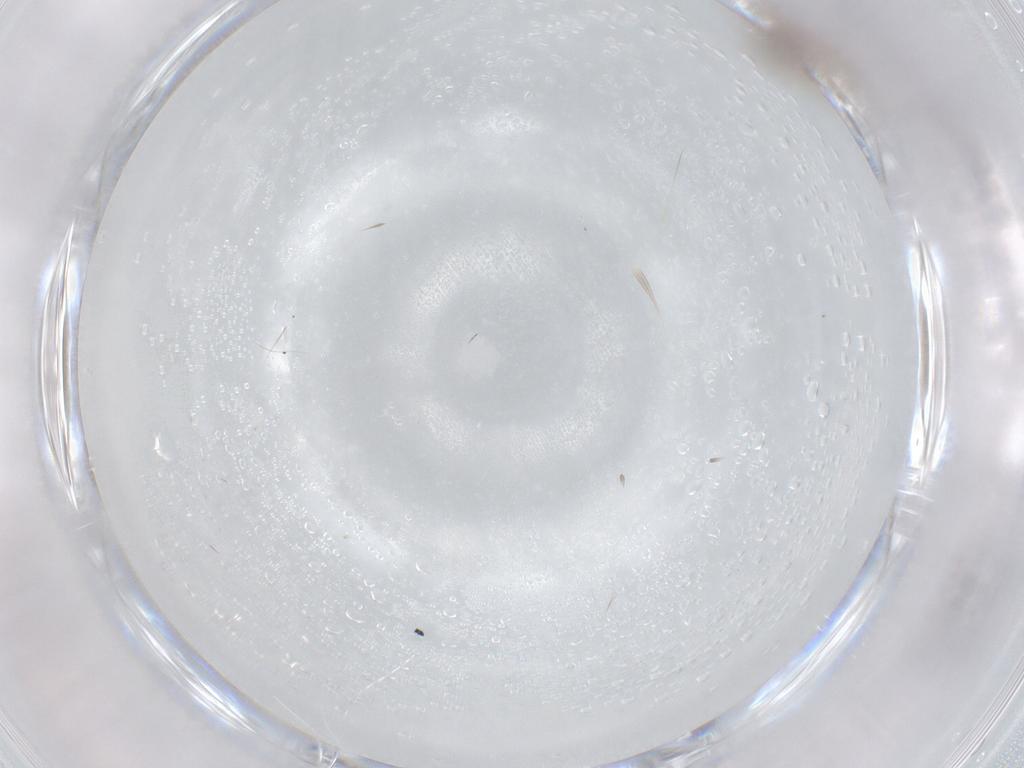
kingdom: Animalia
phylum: Arthropoda
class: Insecta
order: Diptera
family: Chironomidae
